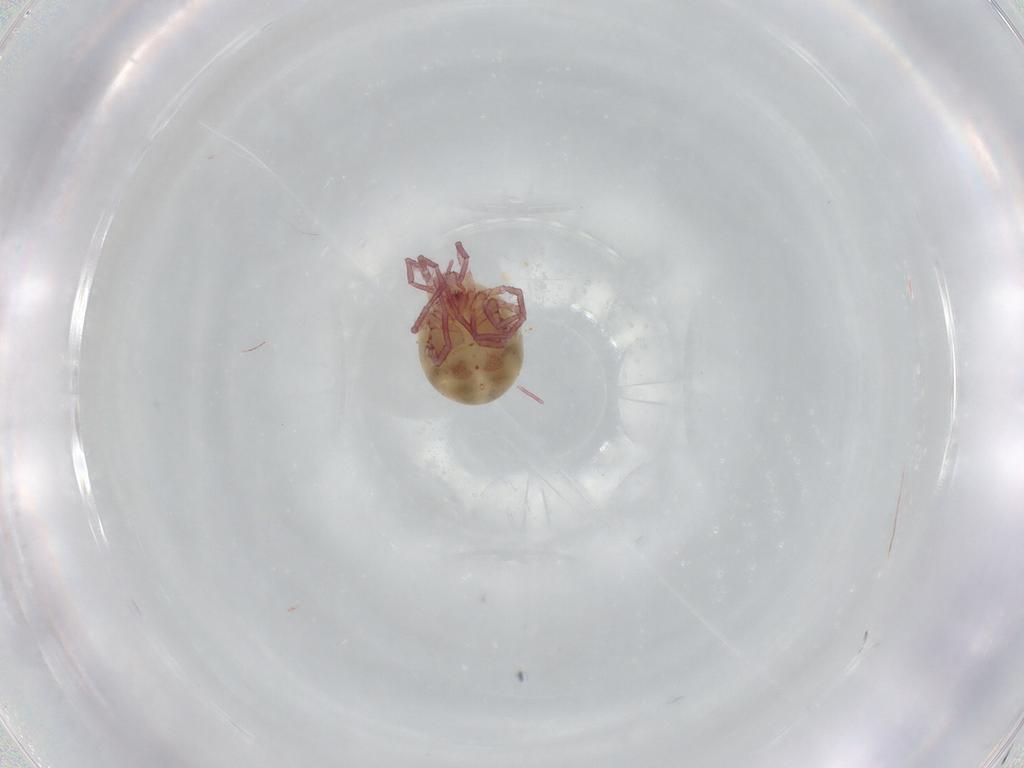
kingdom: Animalia
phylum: Arthropoda
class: Arachnida
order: Trombidiformes
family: Pionidae
